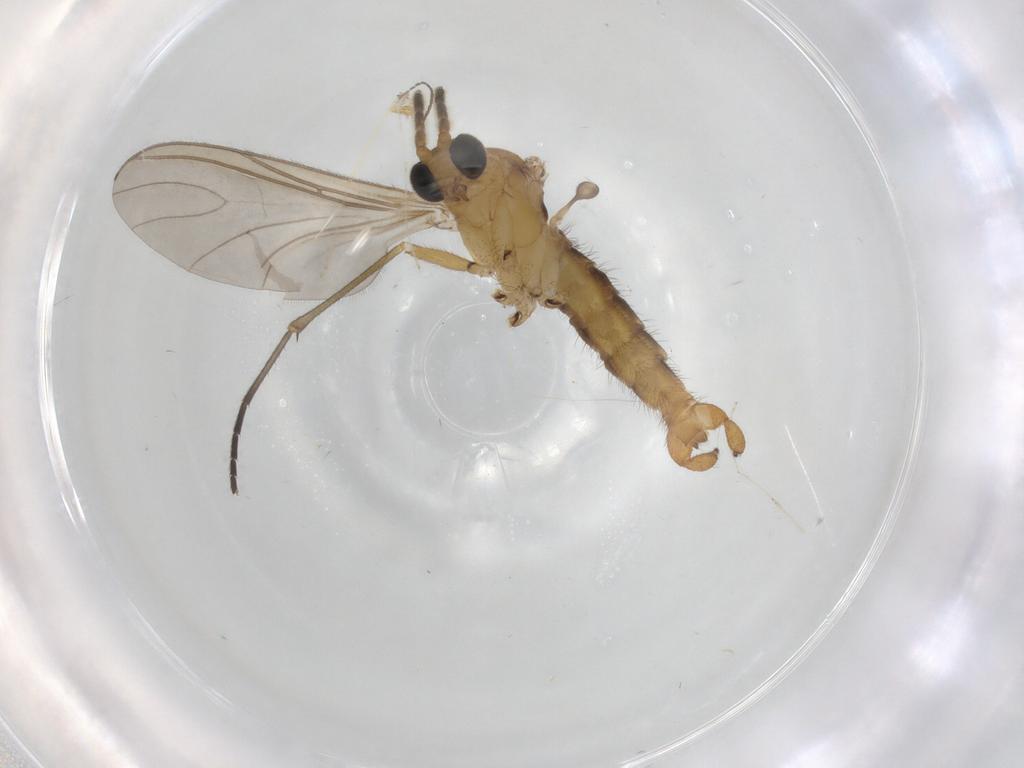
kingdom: Animalia
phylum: Arthropoda
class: Insecta
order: Diptera
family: Sciaridae
